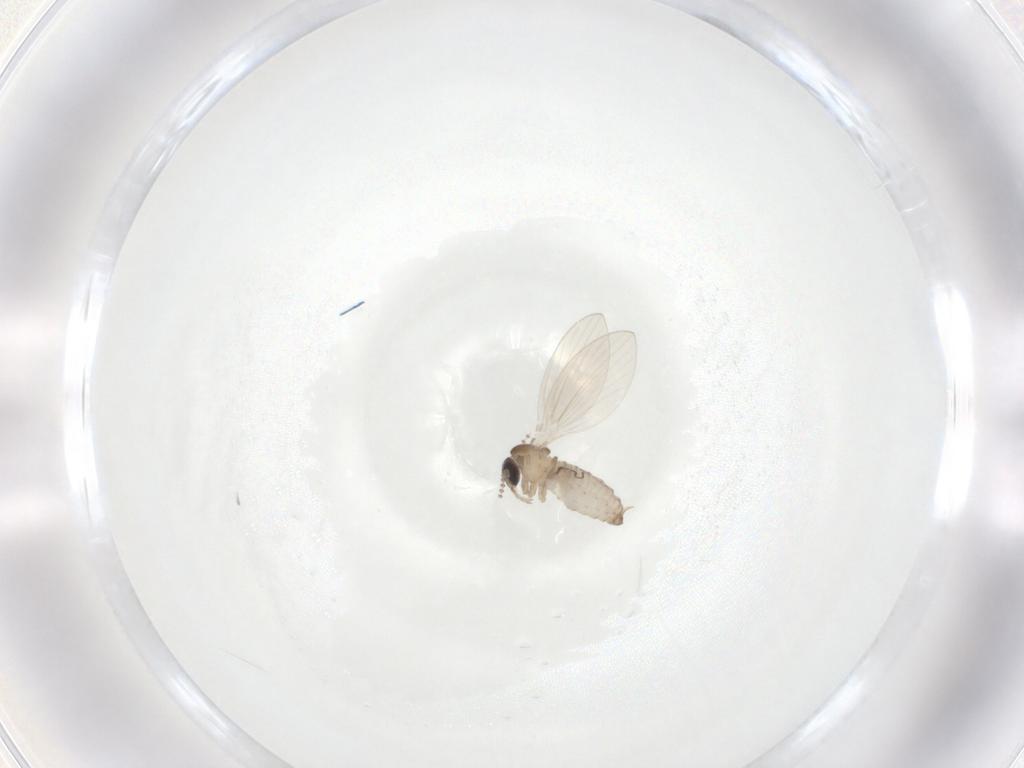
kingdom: Animalia
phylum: Arthropoda
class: Insecta
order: Diptera
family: Psychodidae
